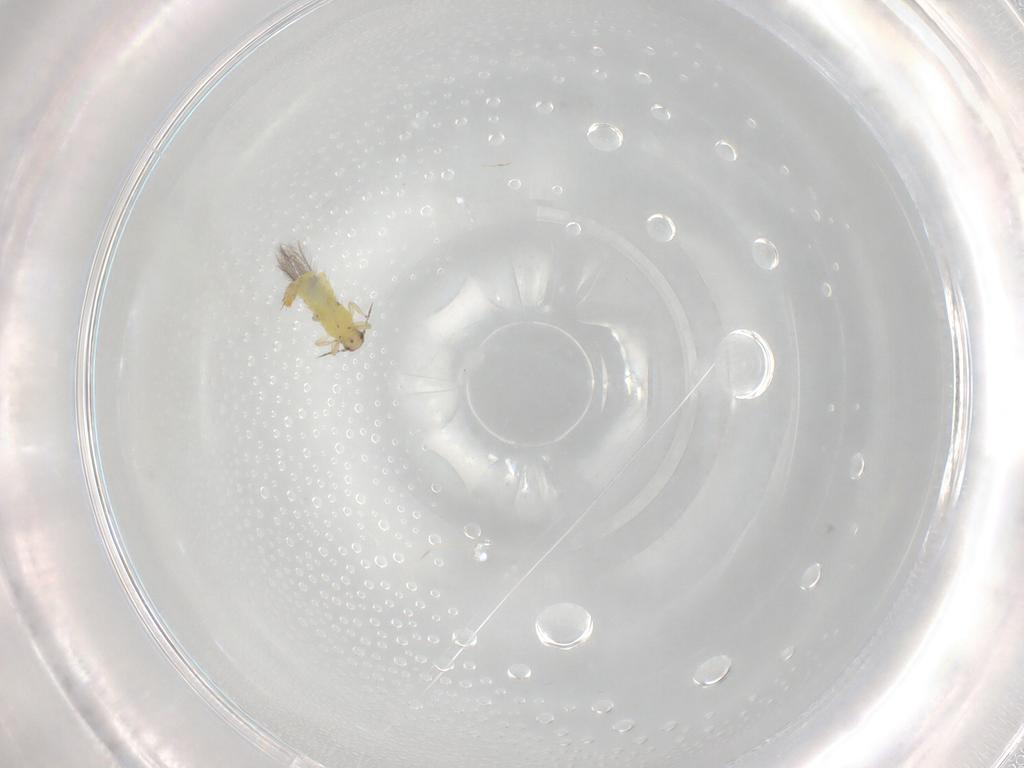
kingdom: Animalia
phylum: Arthropoda
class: Insecta
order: Thysanoptera
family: Thripidae
